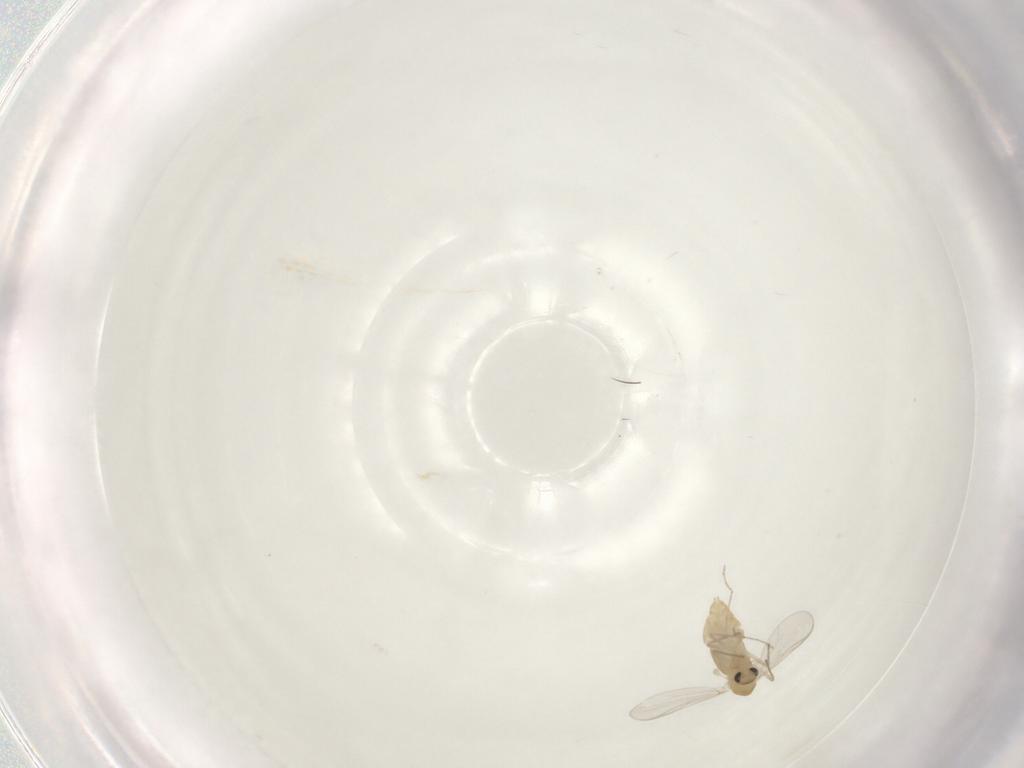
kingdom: Animalia
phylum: Arthropoda
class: Insecta
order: Diptera
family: Chironomidae
